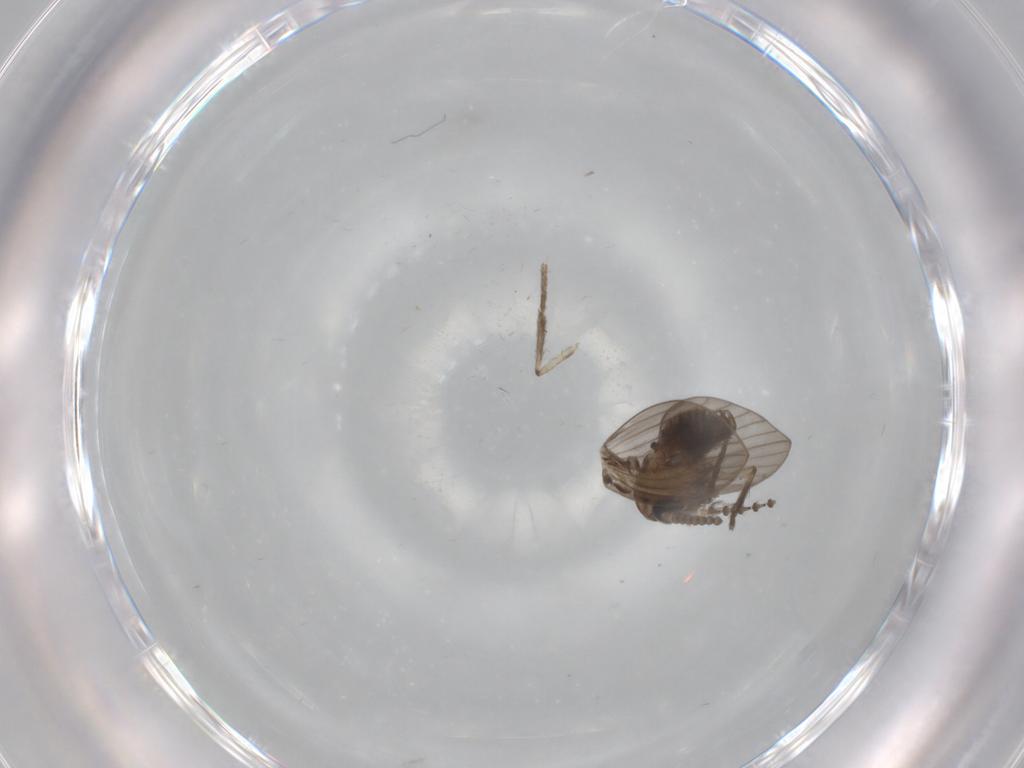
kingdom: Animalia
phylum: Arthropoda
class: Insecta
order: Diptera
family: Psychodidae
